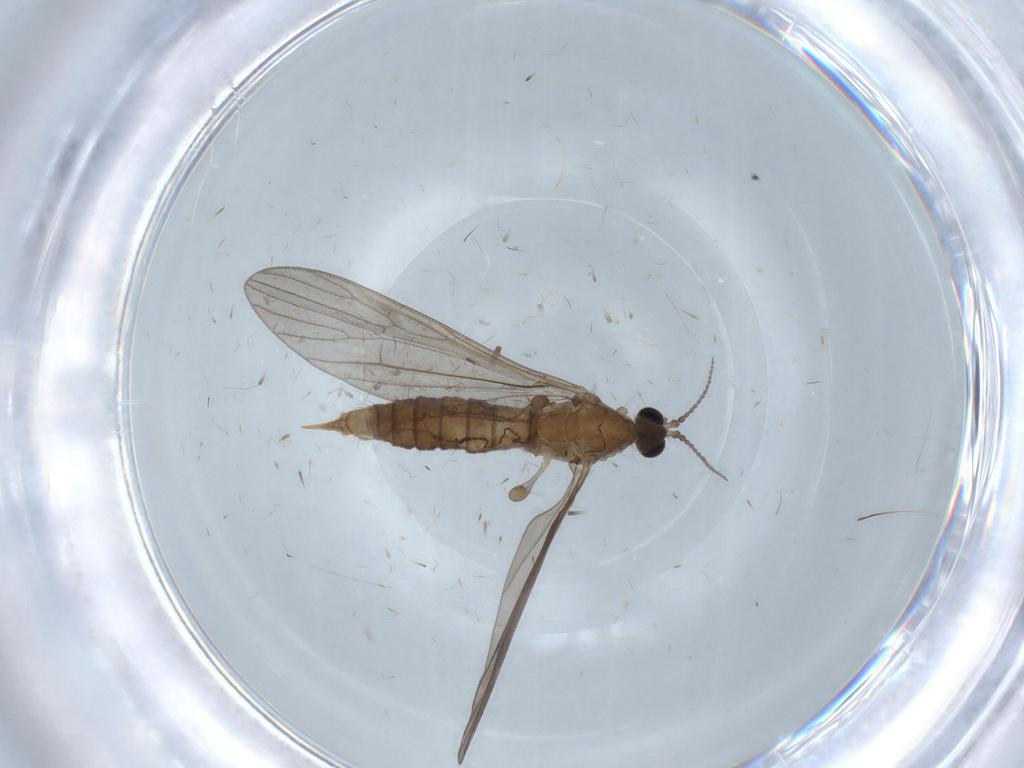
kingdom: Animalia
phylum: Arthropoda
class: Insecta
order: Diptera
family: Limoniidae
